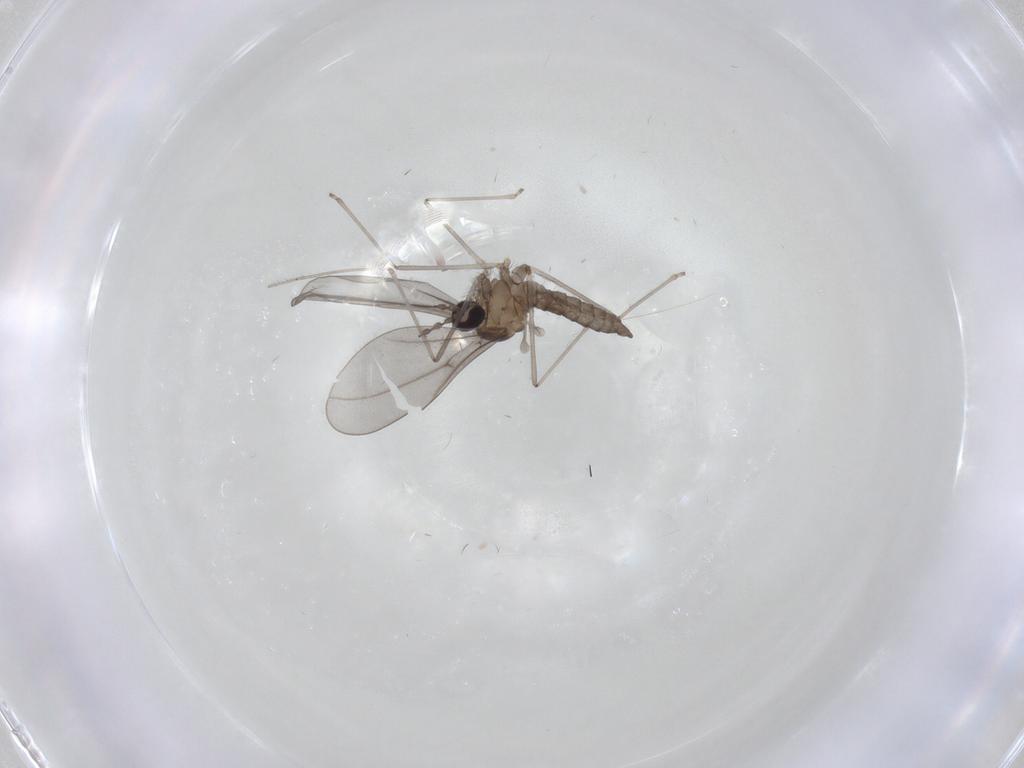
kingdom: Animalia
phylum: Arthropoda
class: Insecta
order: Diptera
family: Cecidomyiidae
